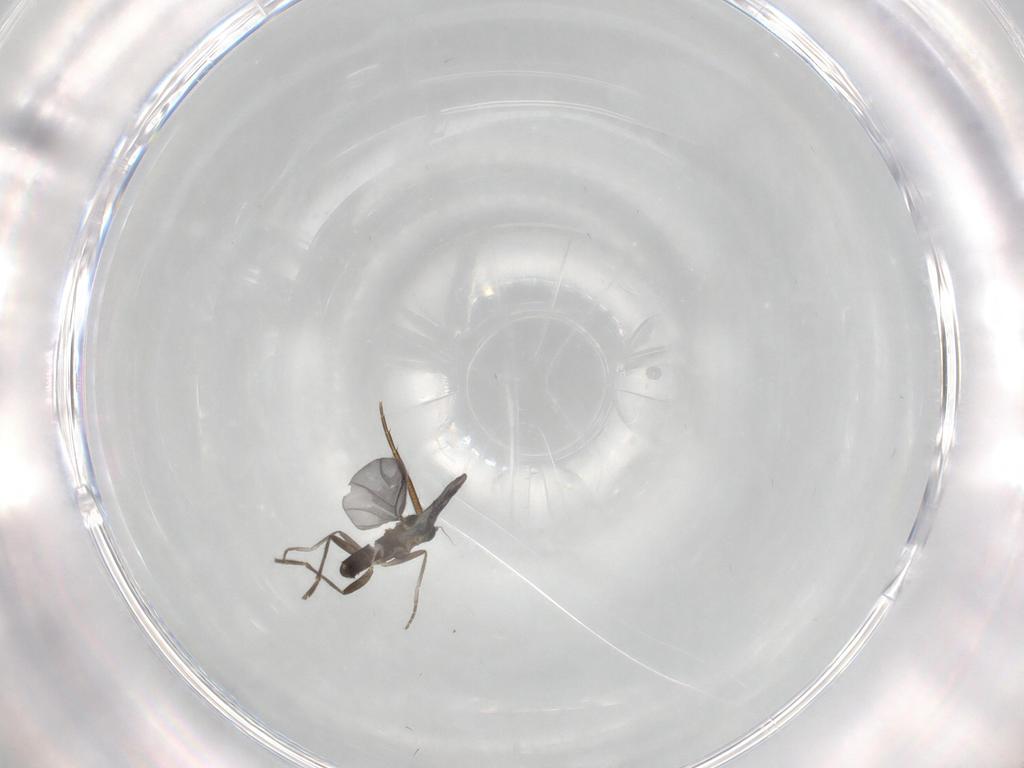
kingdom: Animalia
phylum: Arthropoda
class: Insecta
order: Diptera
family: Phoridae
